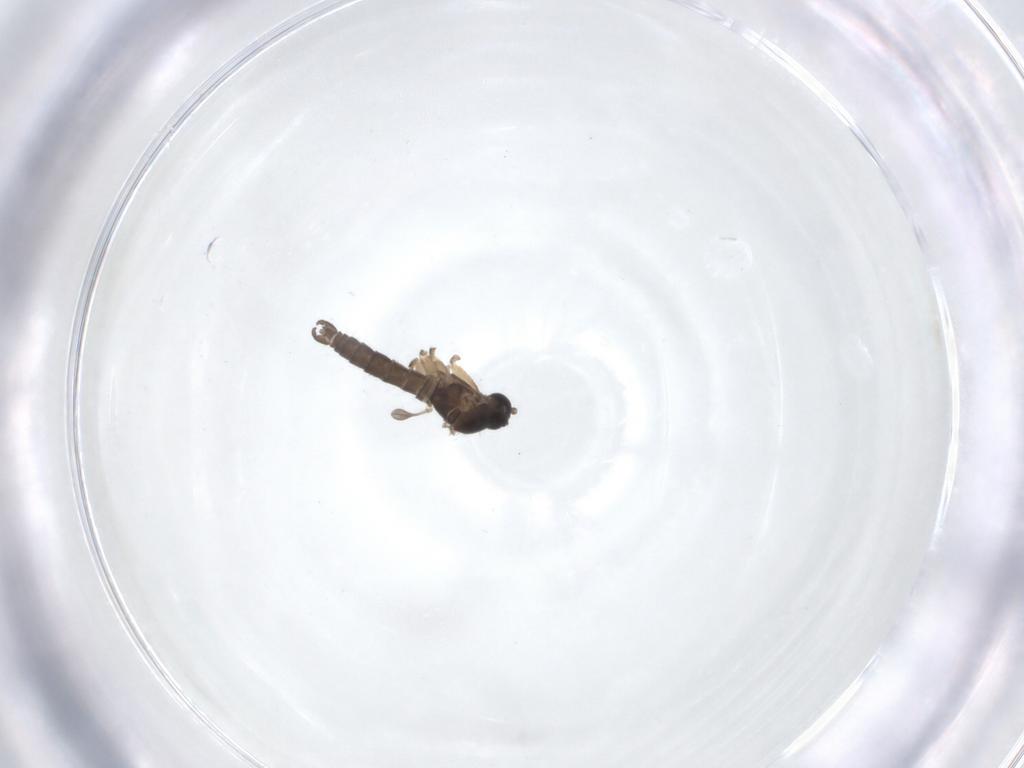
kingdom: Animalia
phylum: Arthropoda
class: Insecta
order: Diptera
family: Sciaridae
